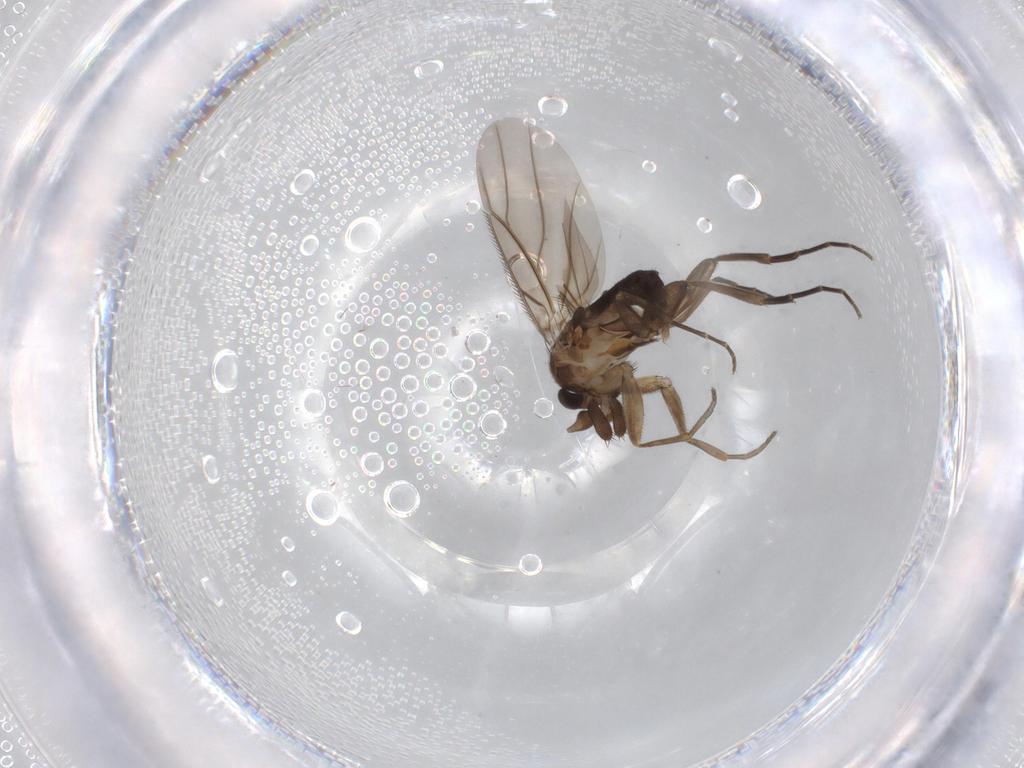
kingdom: Animalia
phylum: Arthropoda
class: Insecta
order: Diptera
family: Phoridae
